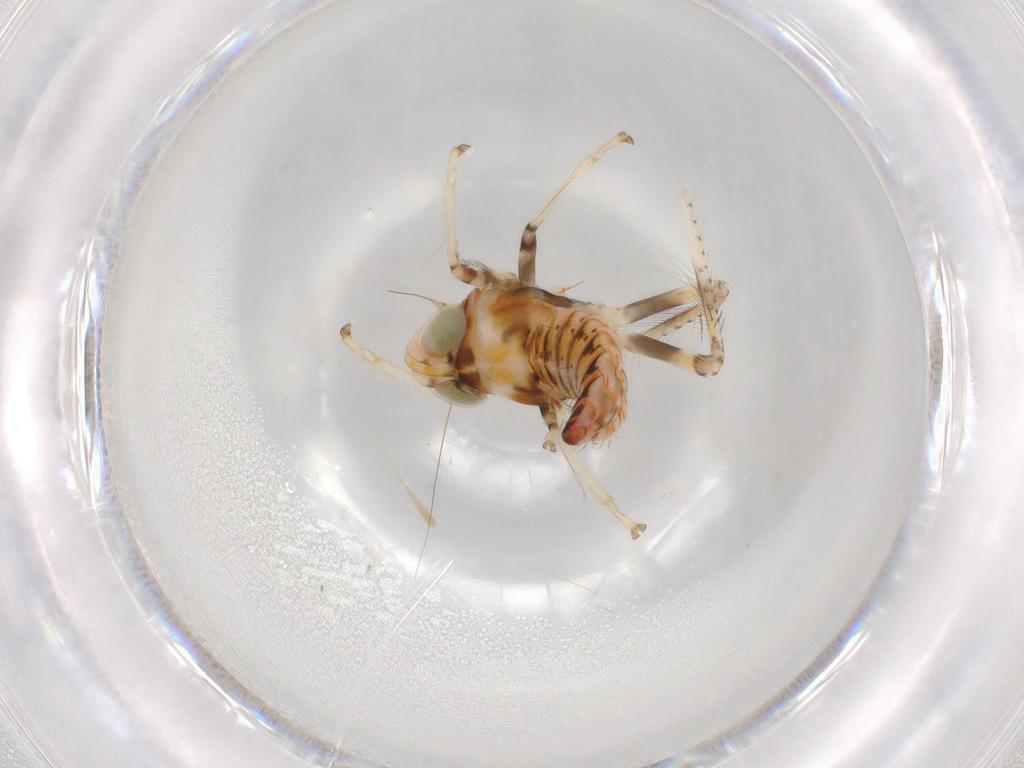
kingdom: Animalia
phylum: Arthropoda
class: Insecta
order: Hemiptera
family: Cicadellidae
